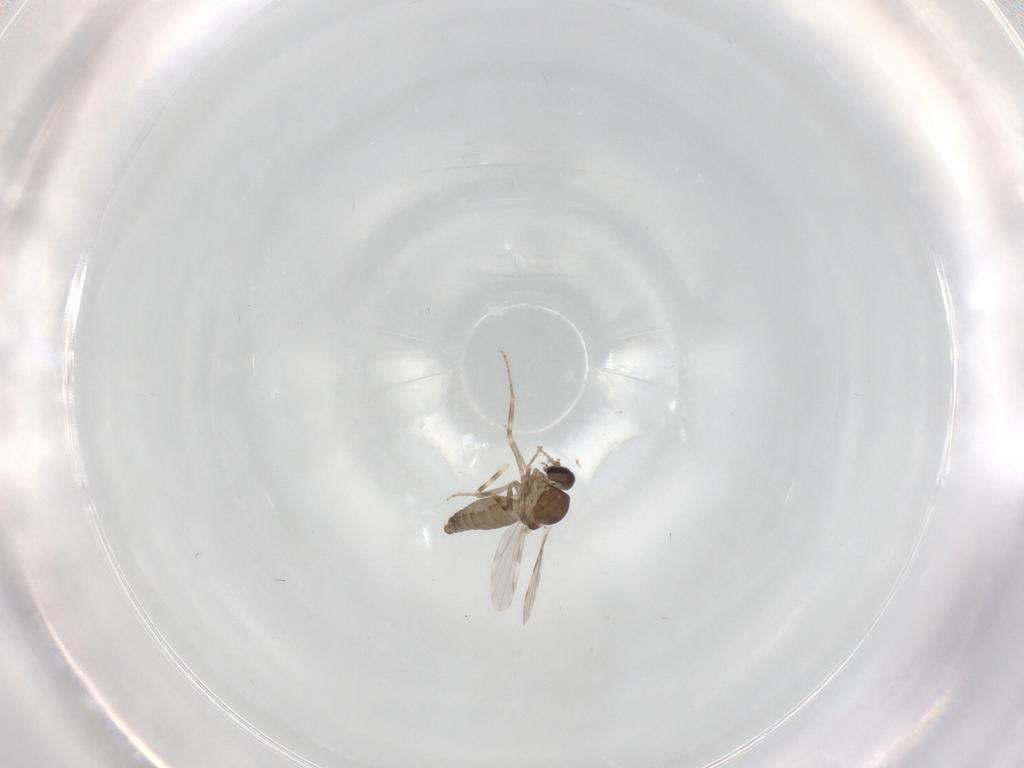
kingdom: Animalia
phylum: Arthropoda
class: Insecta
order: Diptera
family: Ceratopogonidae
